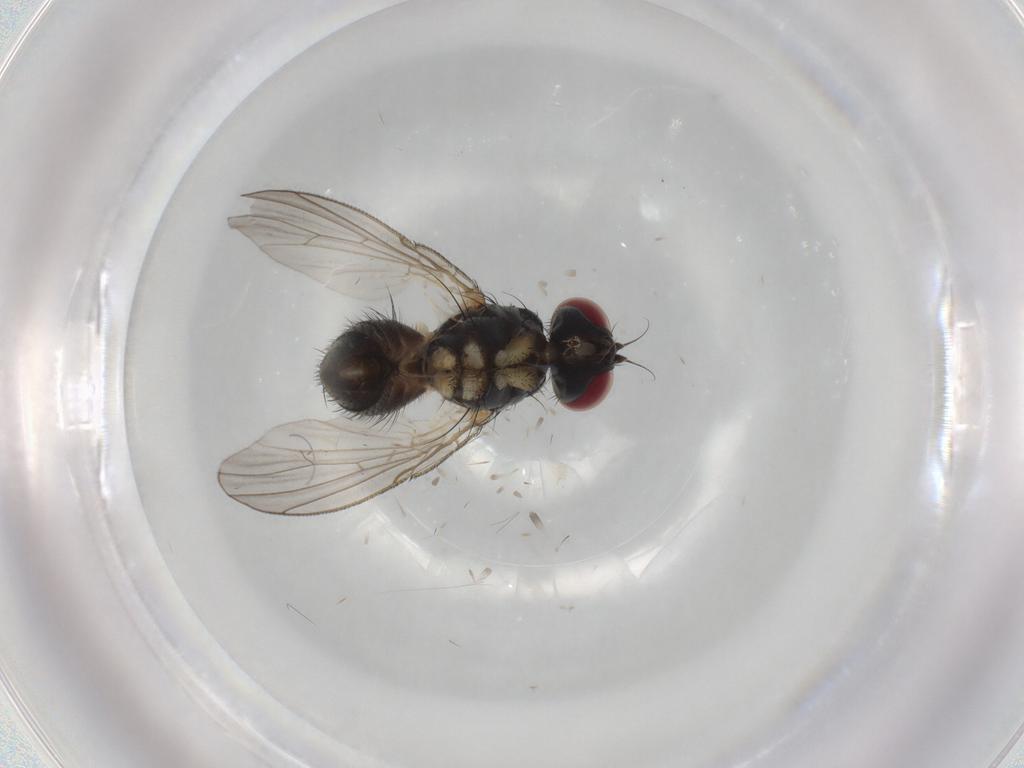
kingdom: Animalia
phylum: Arthropoda
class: Insecta
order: Diptera
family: Muscidae
